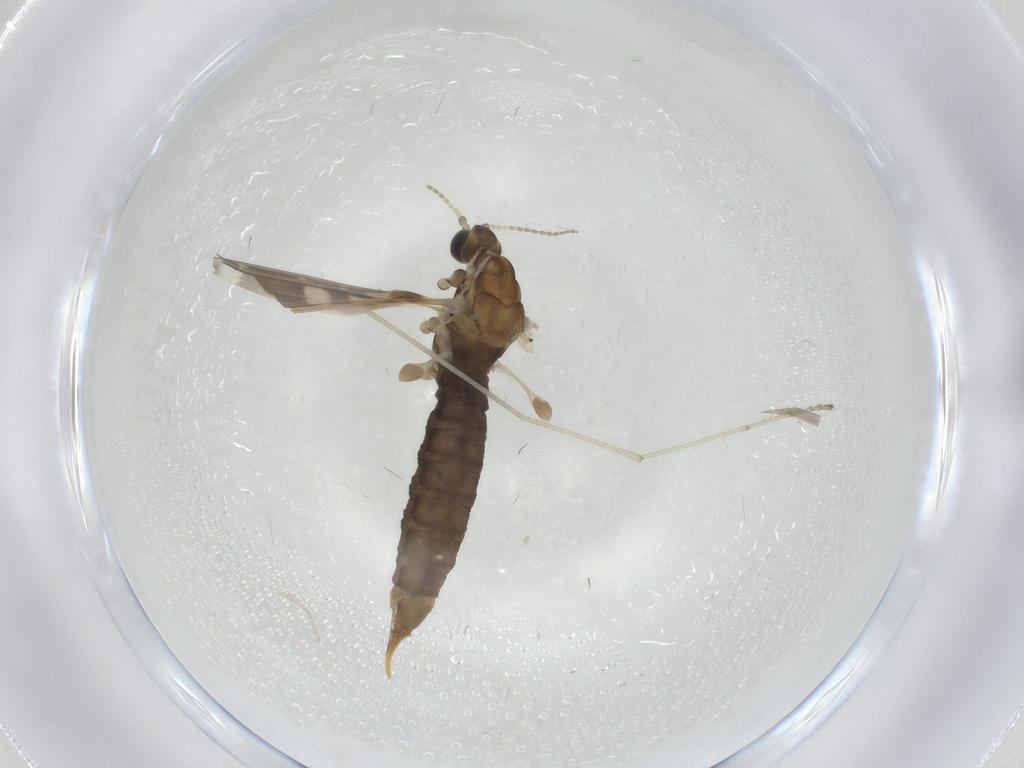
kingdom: Animalia
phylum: Arthropoda
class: Insecta
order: Diptera
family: Limoniidae
